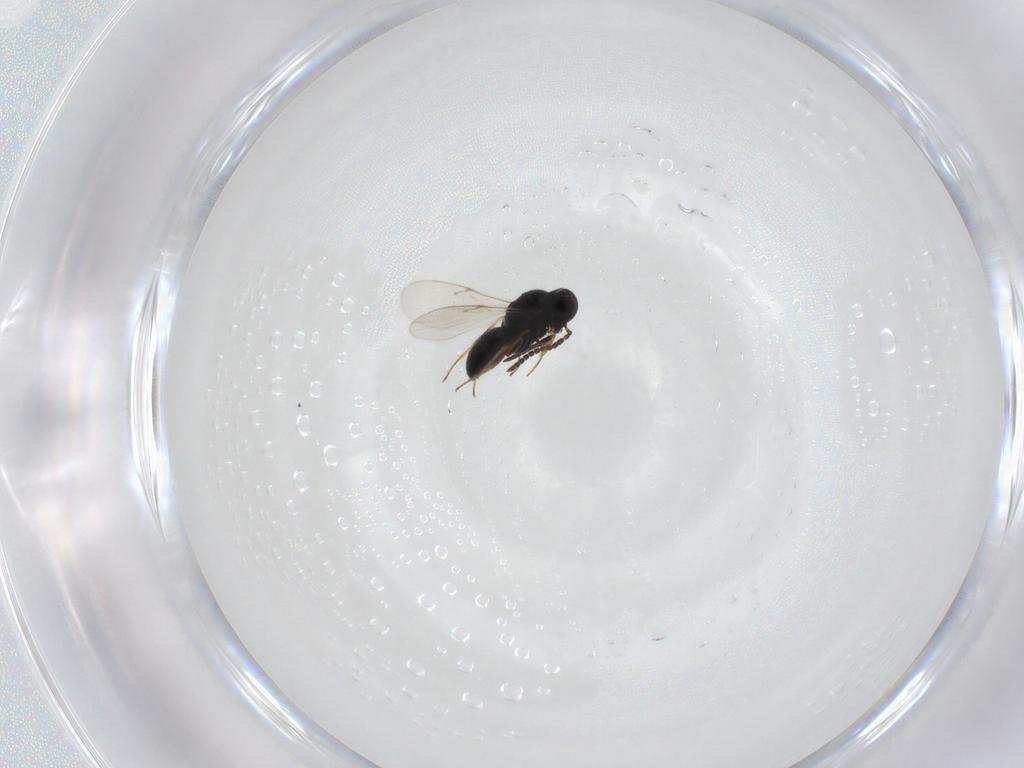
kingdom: Animalia
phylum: Arthropoda
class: Insecta
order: Hymenoptera
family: Scelionidae
